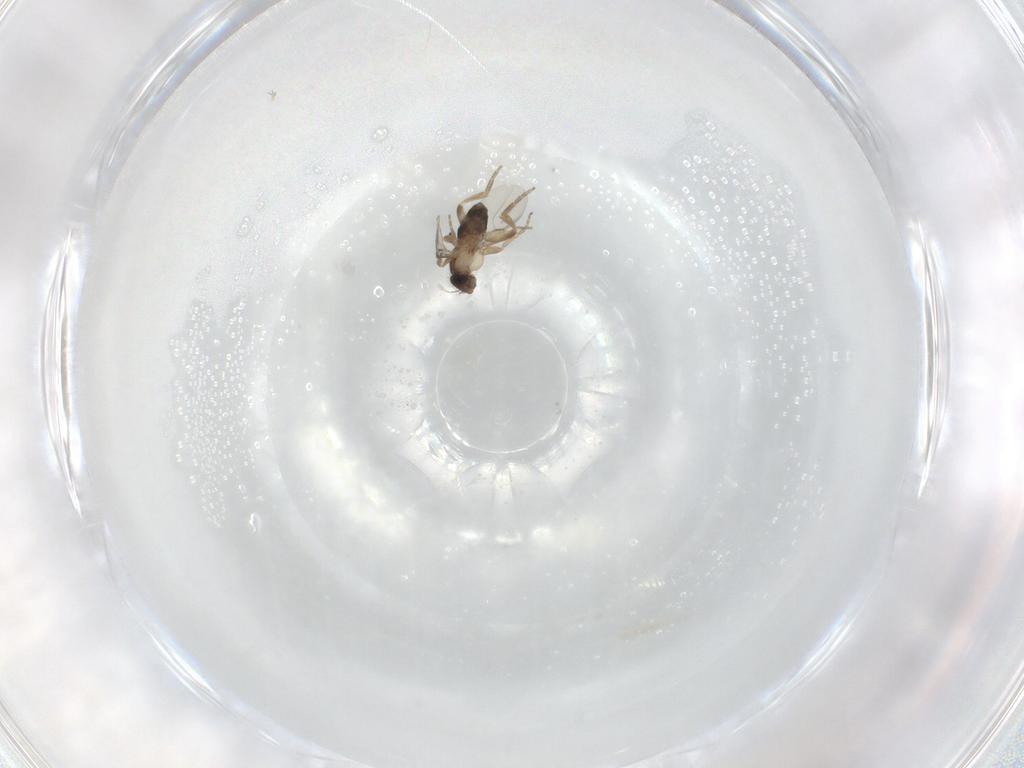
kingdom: Animalia
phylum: Arthropoda
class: Insecta
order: Diptera
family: Phoridae
